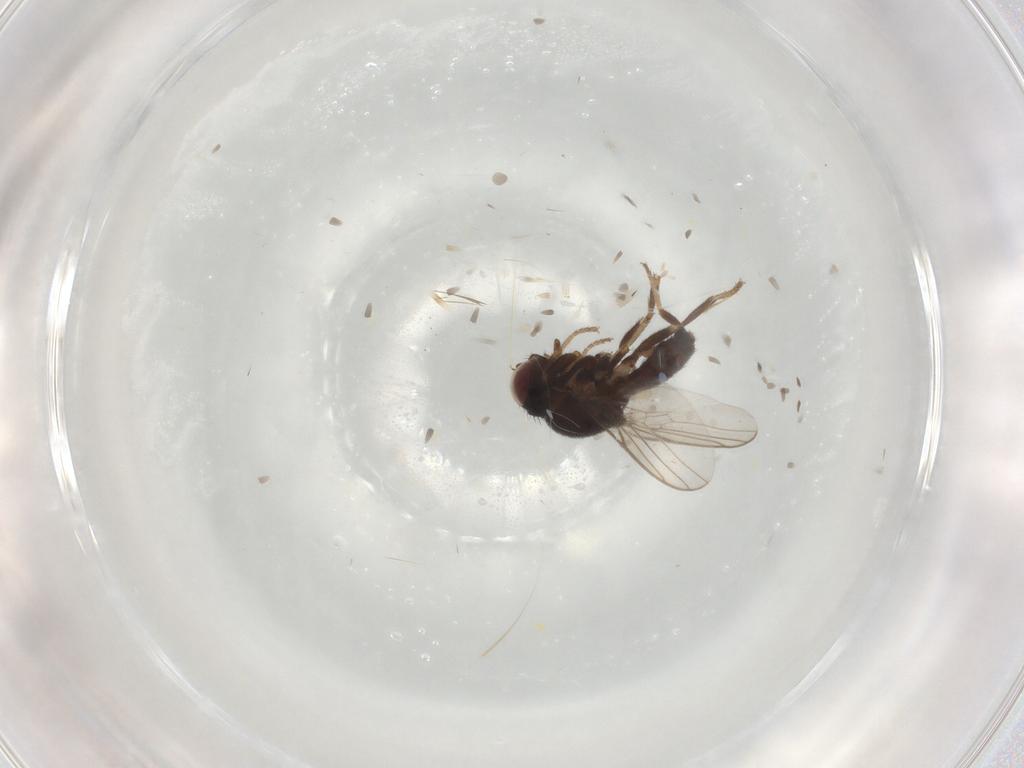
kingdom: Animalia
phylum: Arthropoda
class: Insecta
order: Diptera
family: Chloropidae
